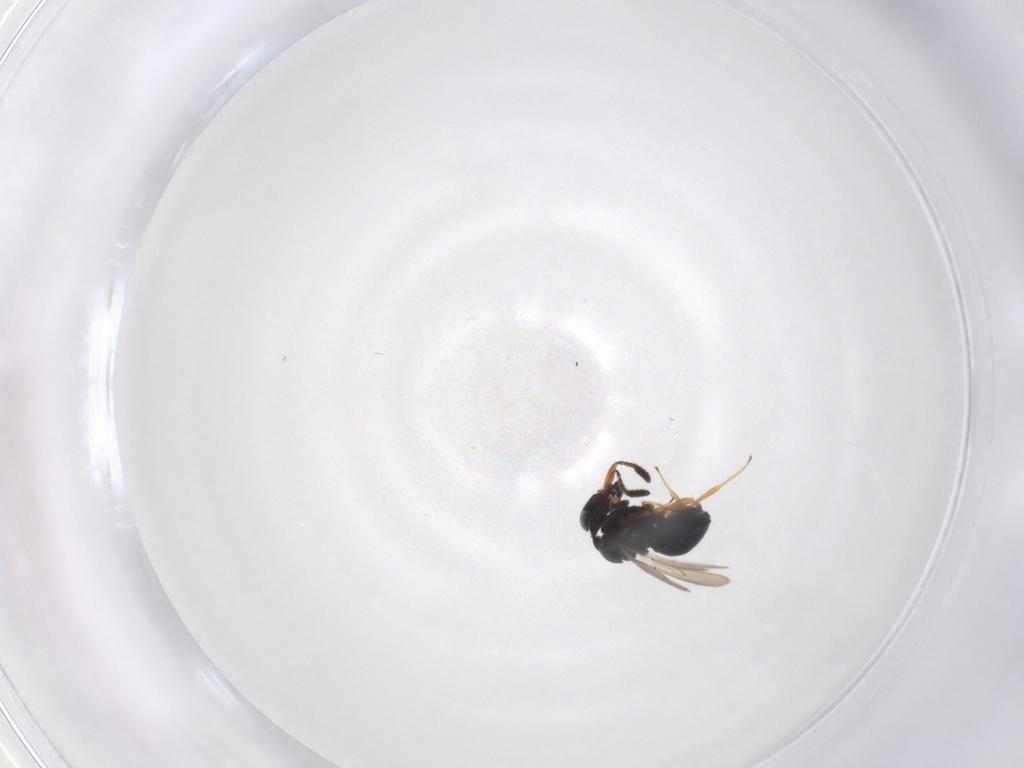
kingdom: Animalia
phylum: Arthropoda
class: Insecta
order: Hymenoptera
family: Scelionidae
